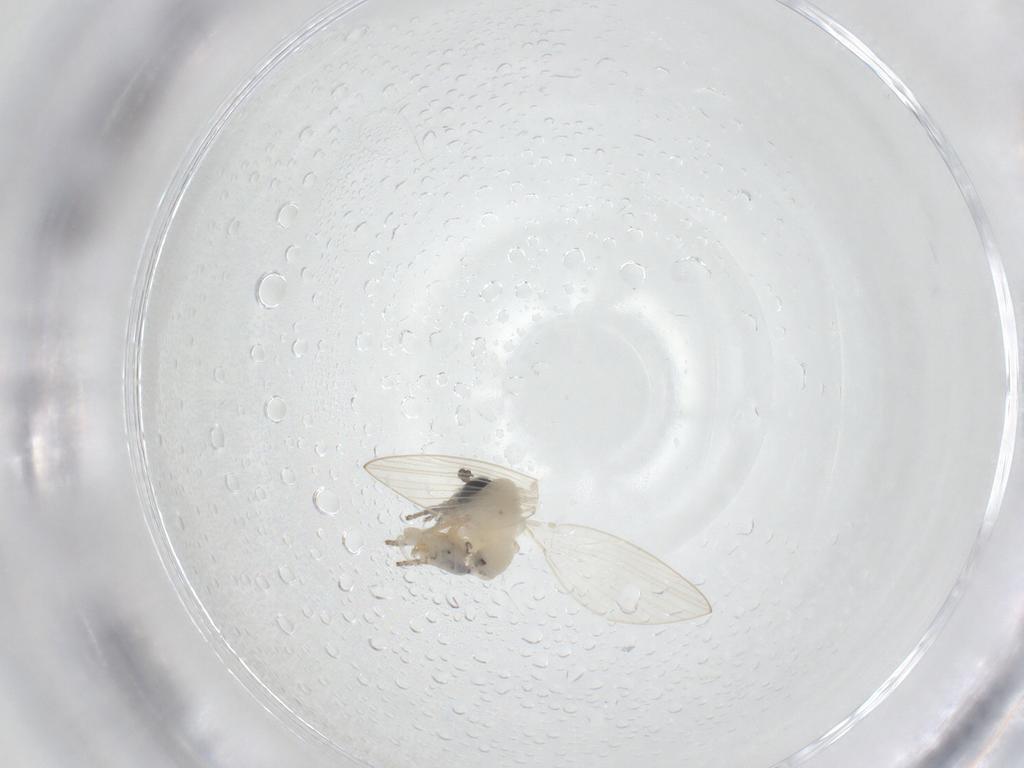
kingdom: Animalia
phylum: Arthropoda
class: Insecta
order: Diptera
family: Psychodidae
